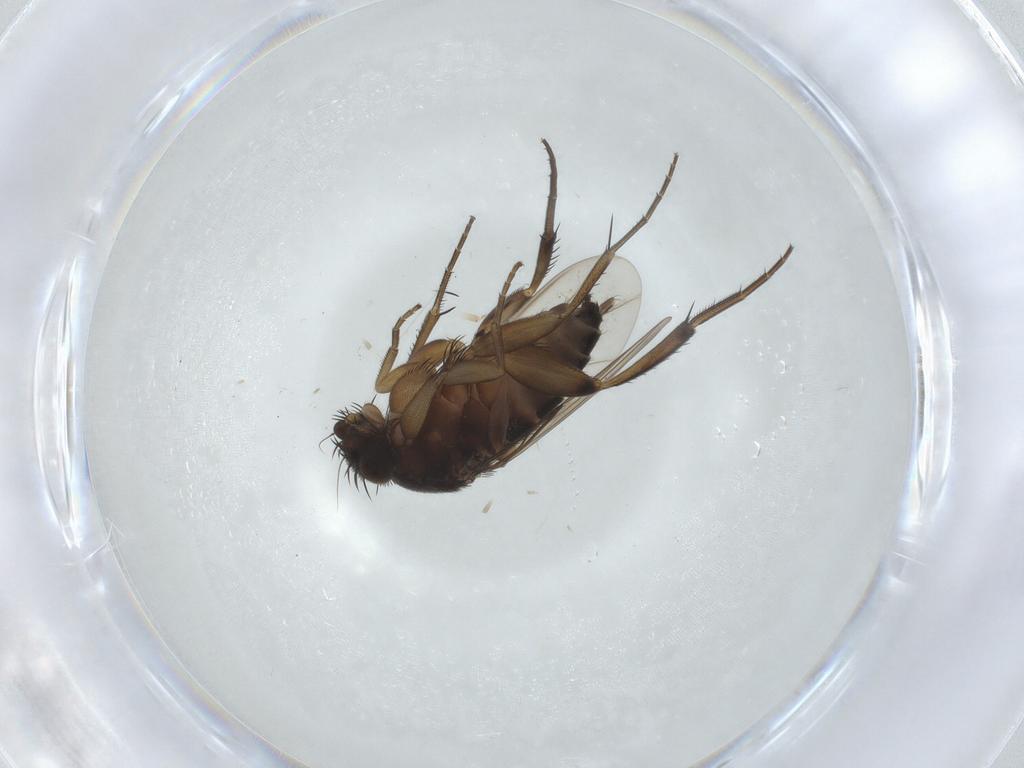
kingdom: Animalia
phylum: Arthropoda
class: Insecta
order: Diptera
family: Phoridae
